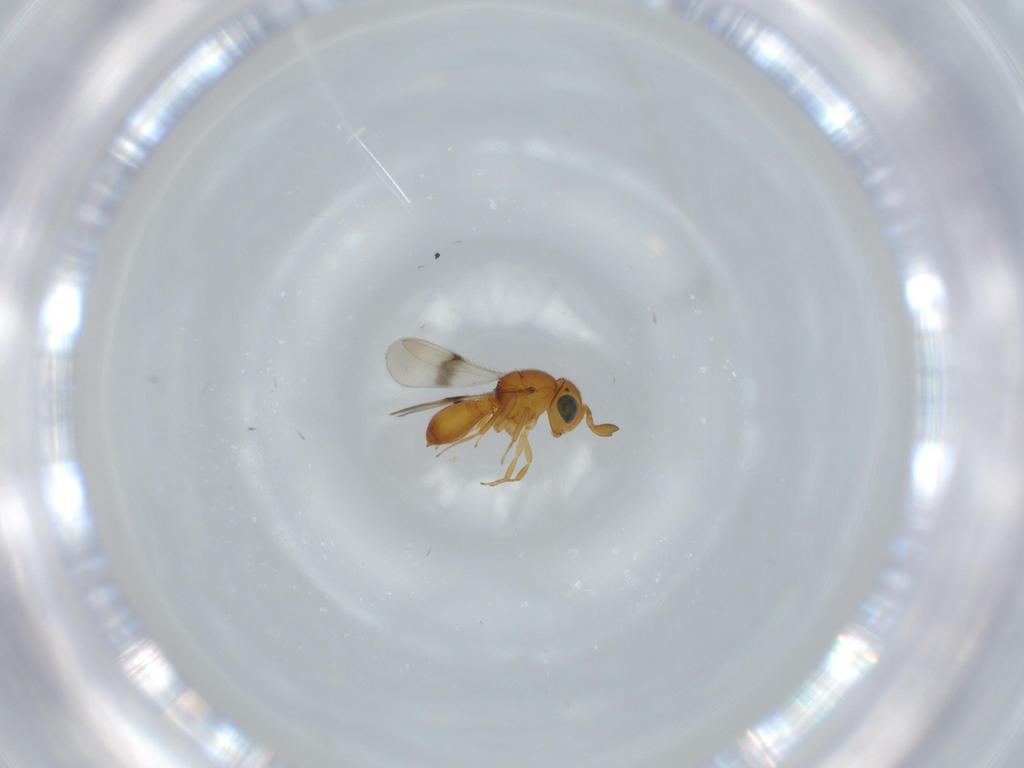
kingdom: Animalia
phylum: Arthropoda
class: Insecta
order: Hymenoptera
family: Scelionidae
